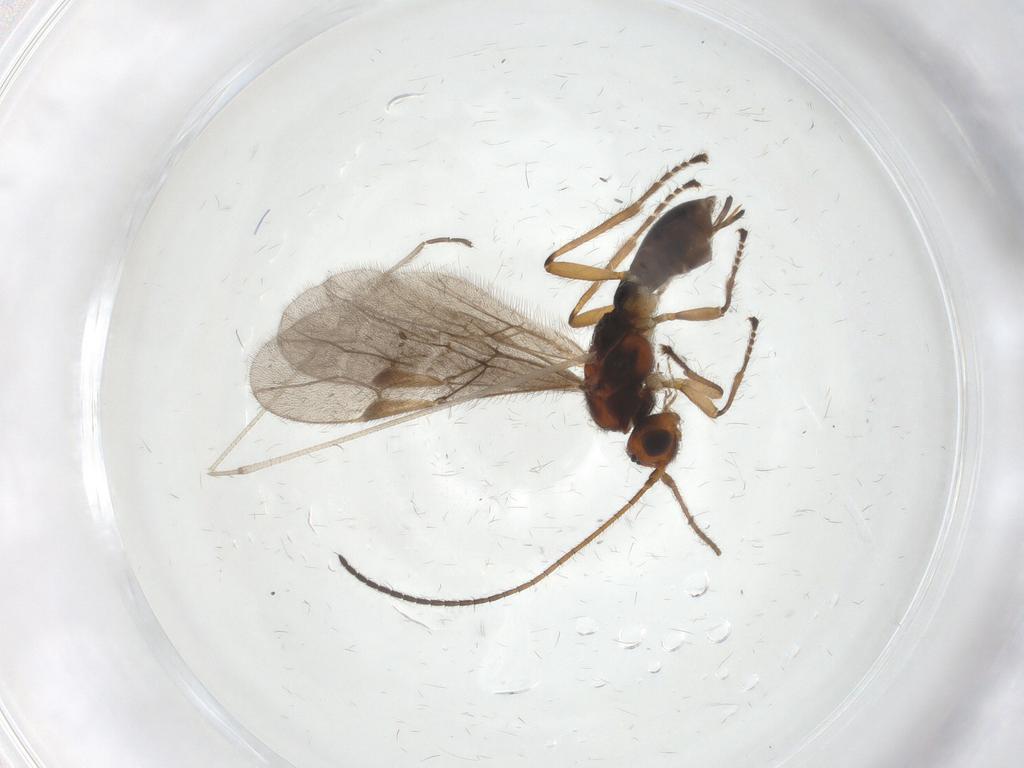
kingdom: Animalia
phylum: Arthropoda
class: Insecta
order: Hymenoptera
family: Braconidae
